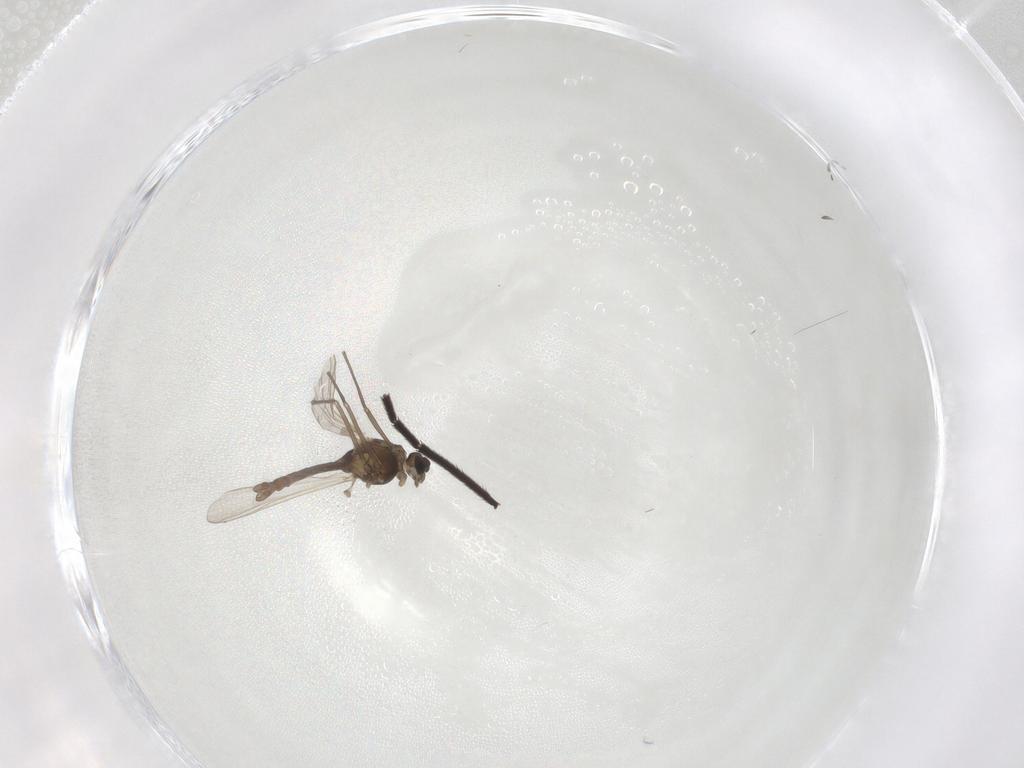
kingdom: Animalia
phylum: Arthropoda
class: Insecta
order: Diptera
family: Chironomidae
